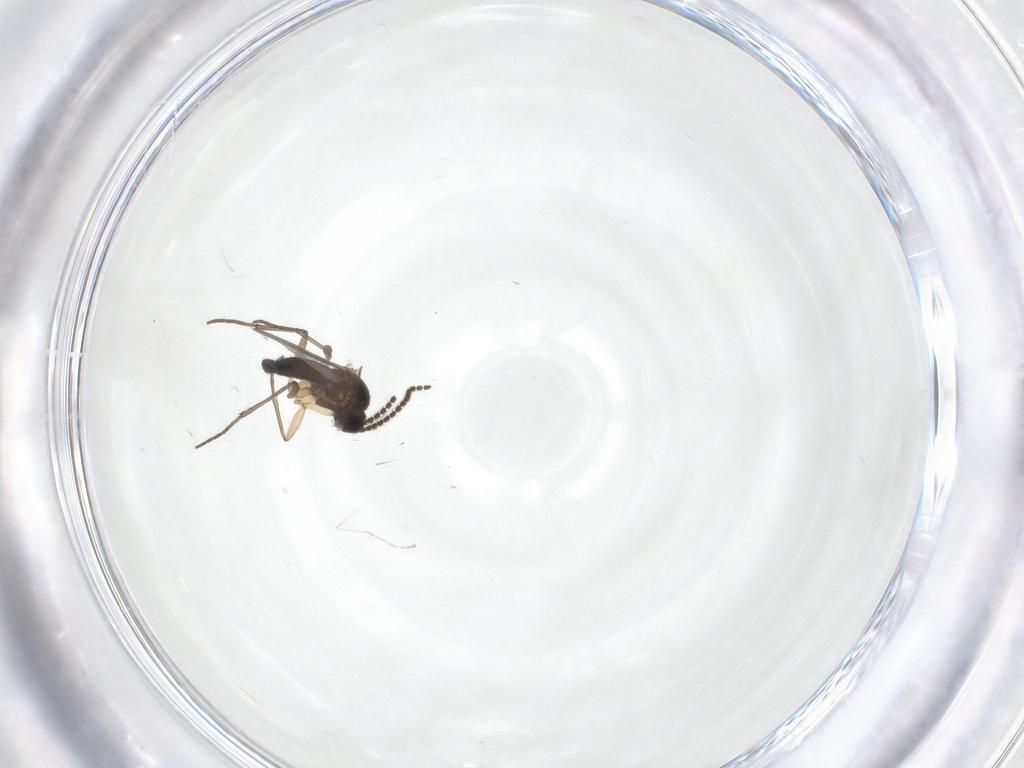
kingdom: Animalia
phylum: Arthropoda
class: Insecta
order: Diptera
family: Sciaridae
